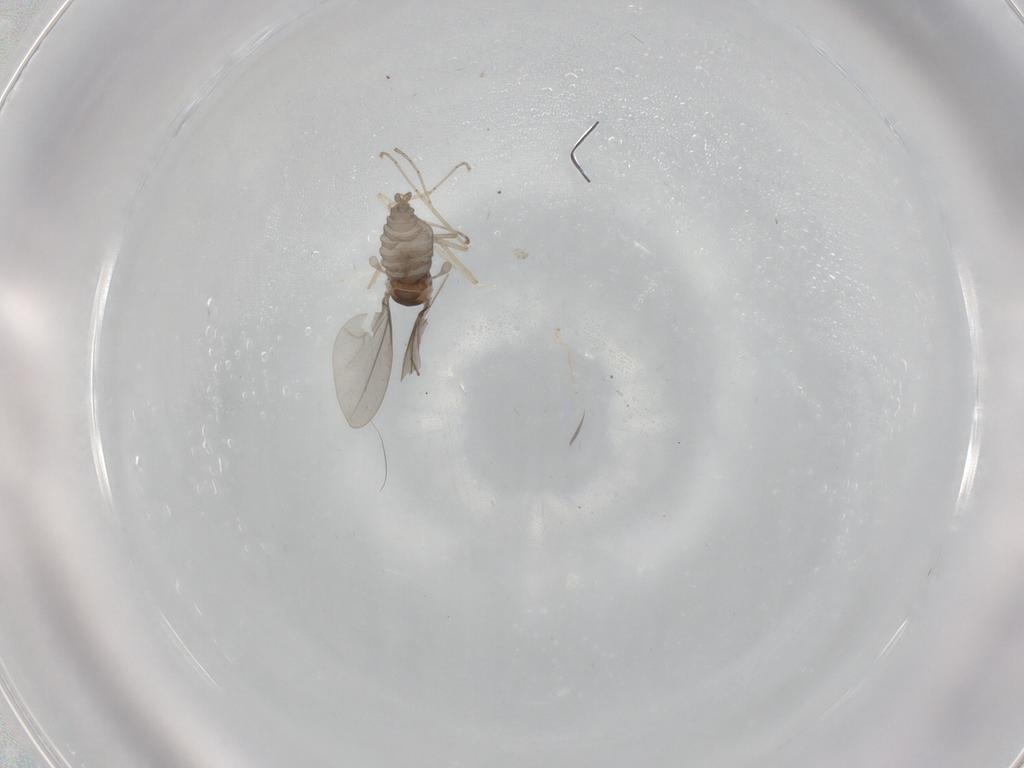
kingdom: Animalia
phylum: Arthropoda
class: Insecta
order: Diptera
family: Cecidomyiidae
